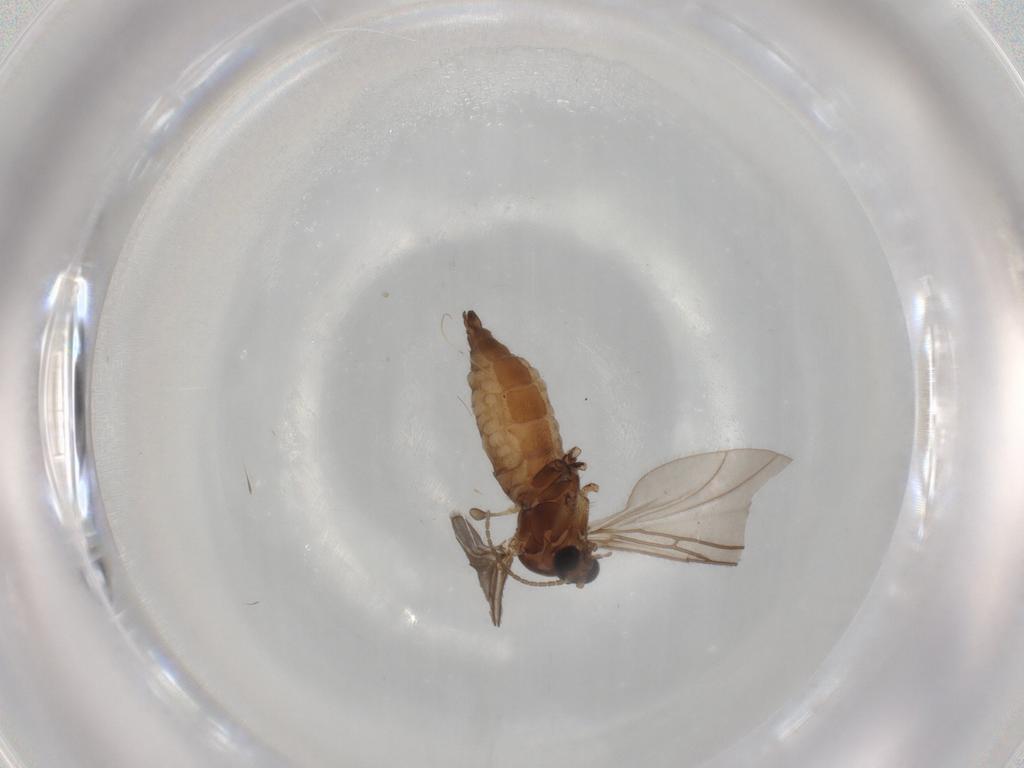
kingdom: Animalia
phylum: Arthropoda
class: Insecta
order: Diptera
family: Sciaridae
